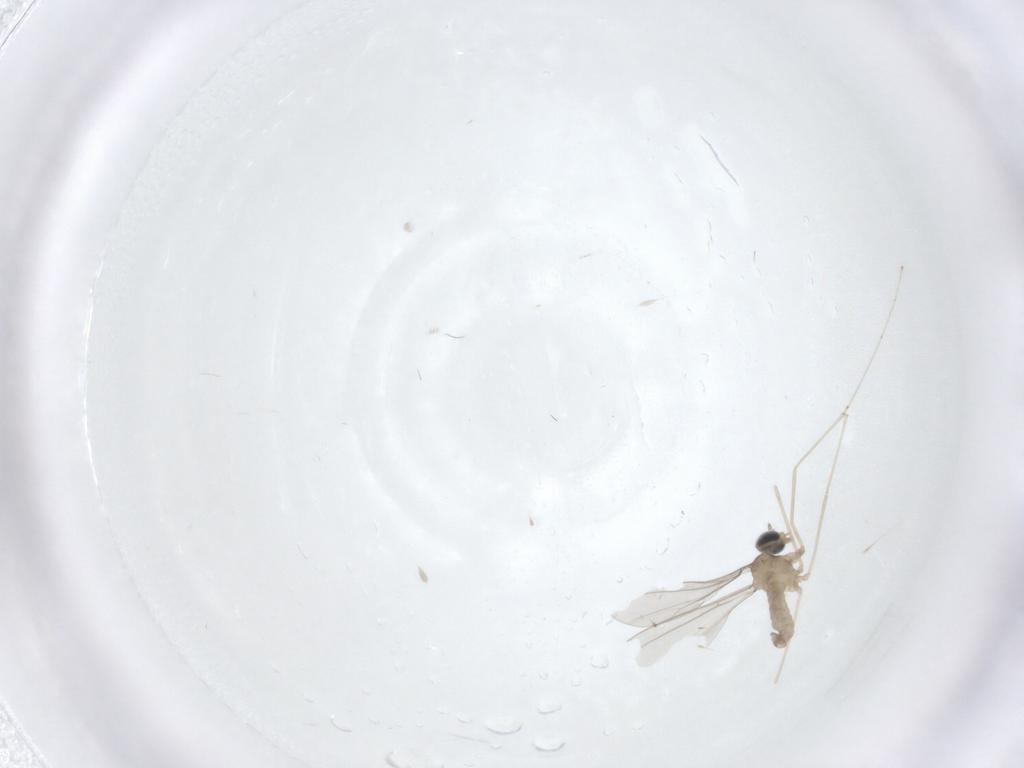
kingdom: Animalia
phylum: Arthropoda
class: Insecta
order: Diptera
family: Cecidomyiidae
